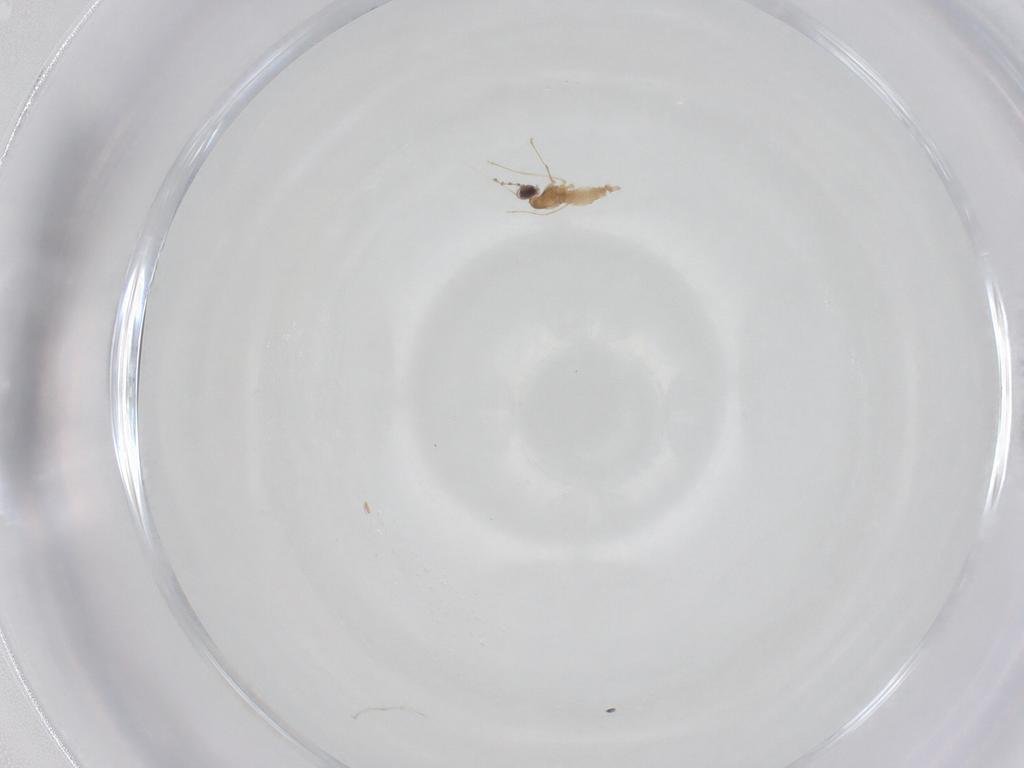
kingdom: Animalia
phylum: Arthropoda
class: Insecta
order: Diptera
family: Cecidomyiidae
